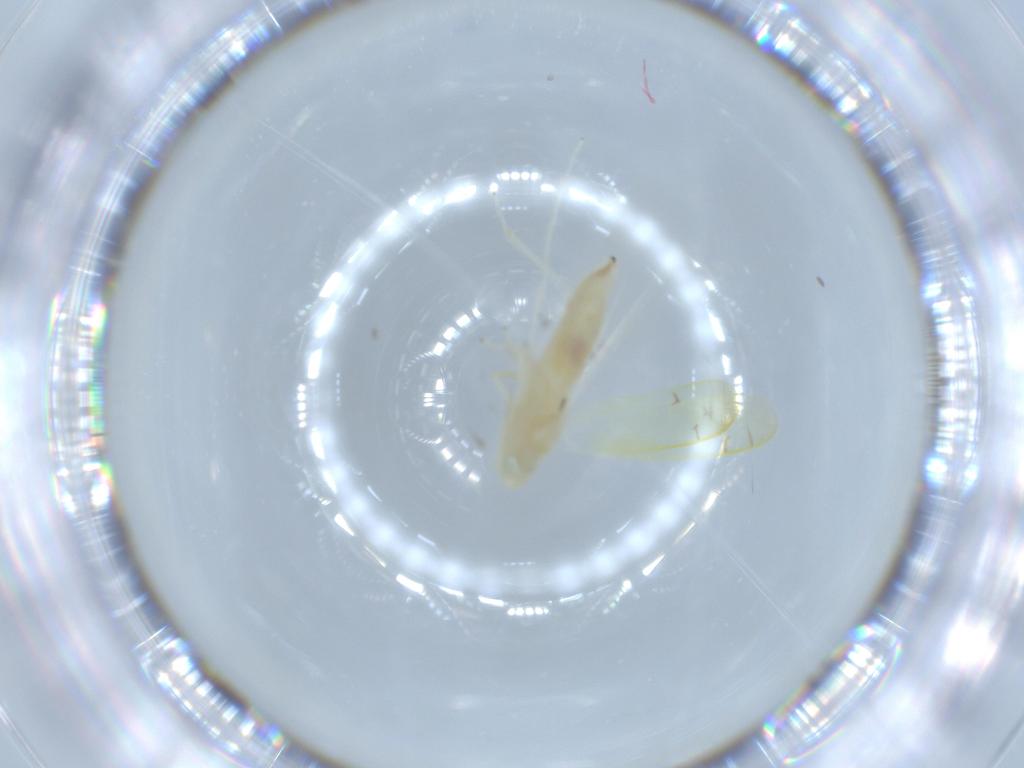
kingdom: Animalia
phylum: Arthropoda
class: Insecta
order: Hemiptera
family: Cicadellidae
